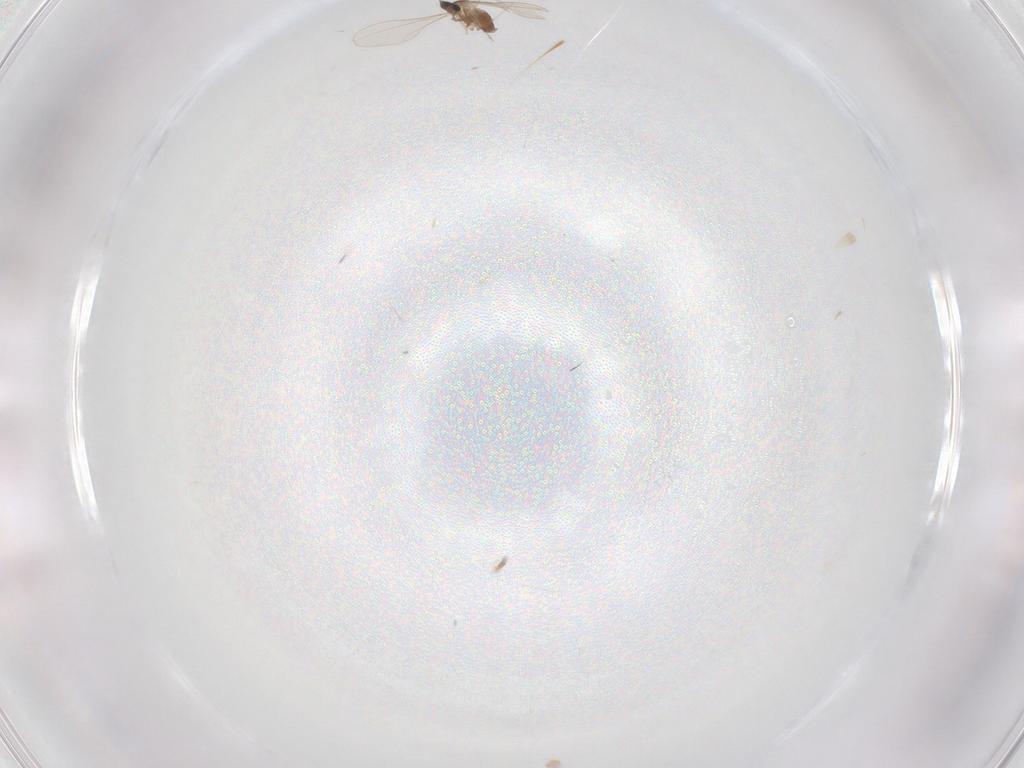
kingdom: Animalia
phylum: Arthropoda
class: Insecta
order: Diptera
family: Cecidomyiidae
